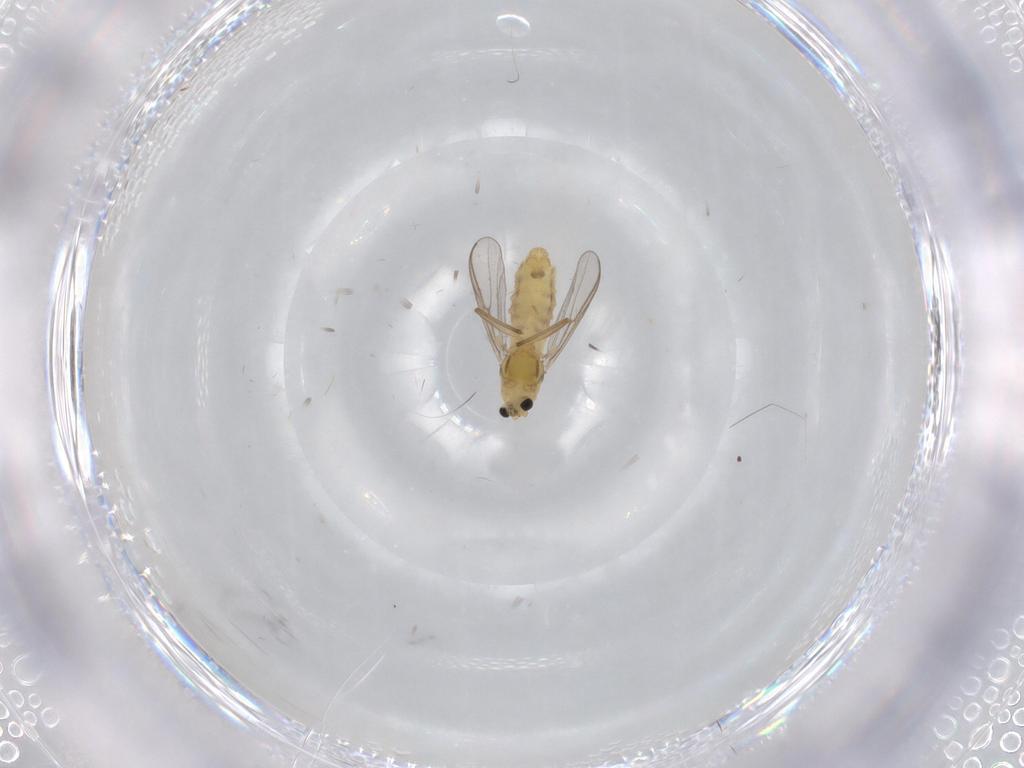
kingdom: Animalia
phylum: Arthropoda
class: Insecta
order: Diptera
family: Chironomidae
